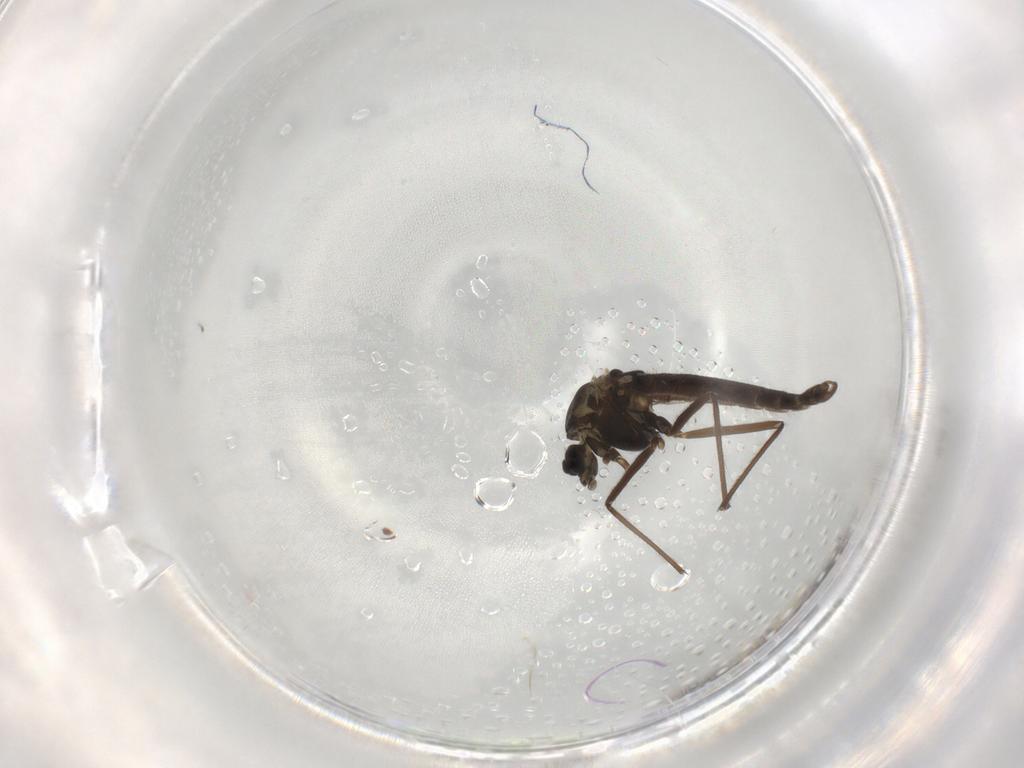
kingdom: Animalia
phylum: Arthropoda
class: Insecta
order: Diptera
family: Chironomidae
